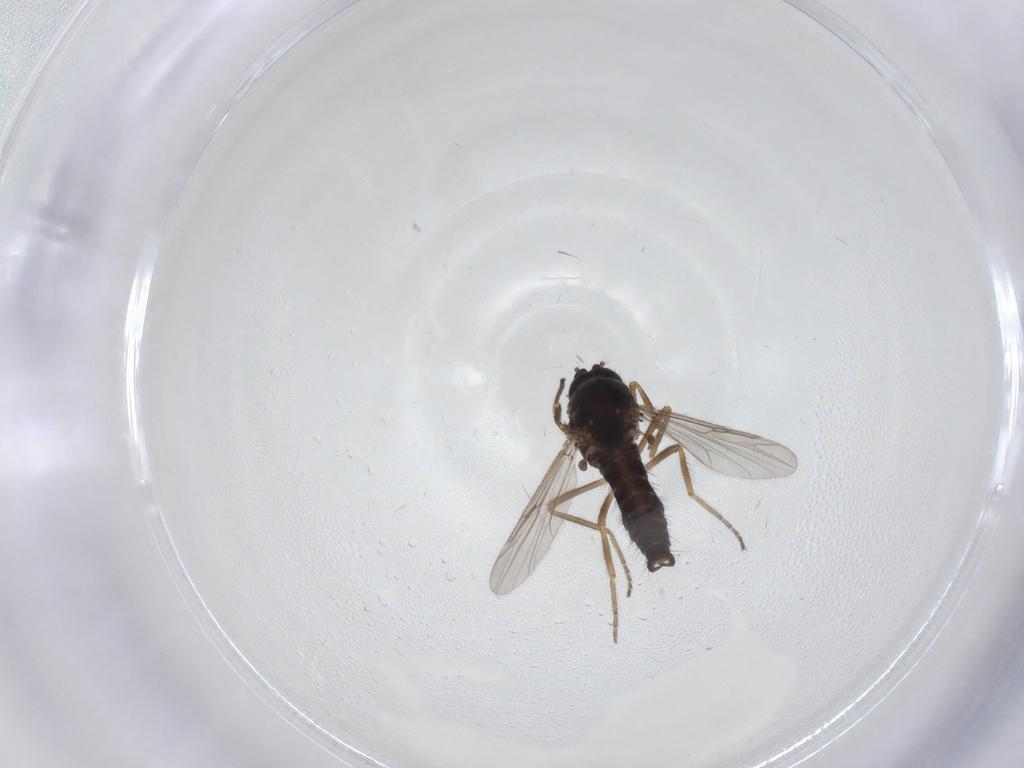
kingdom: Animalia
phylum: Arthropoda
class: Insecta
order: Diptera
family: Ceratopogonidae
